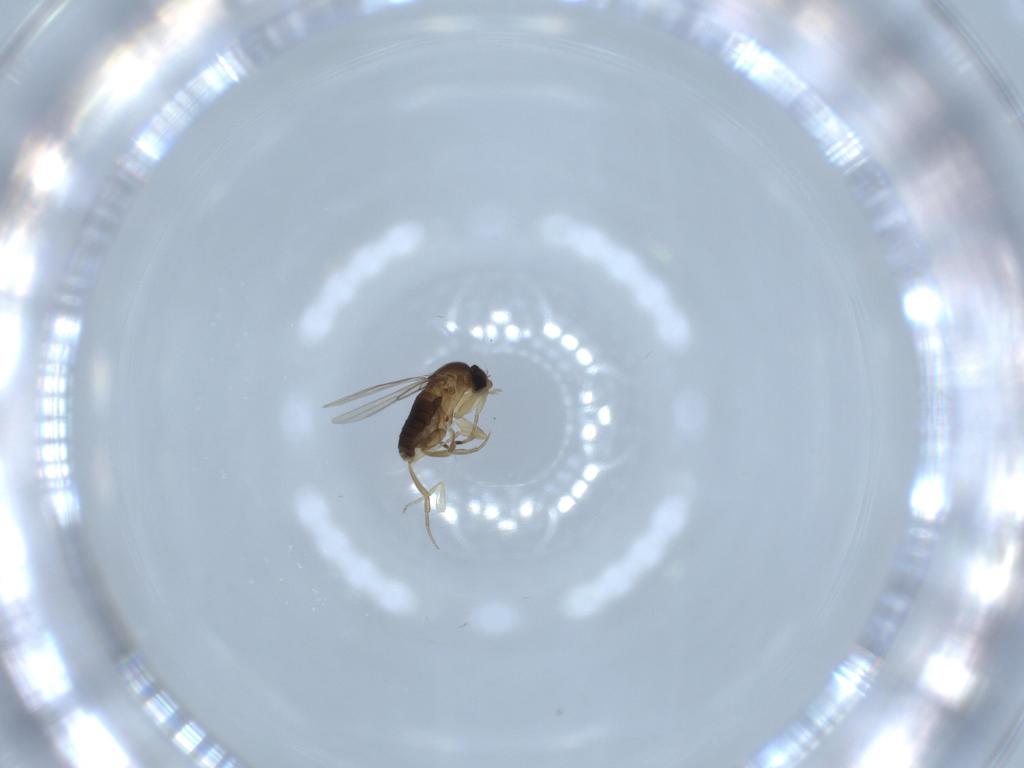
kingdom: Animalia
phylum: Arthropoda
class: Insecta
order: Diptera
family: Phoridae
